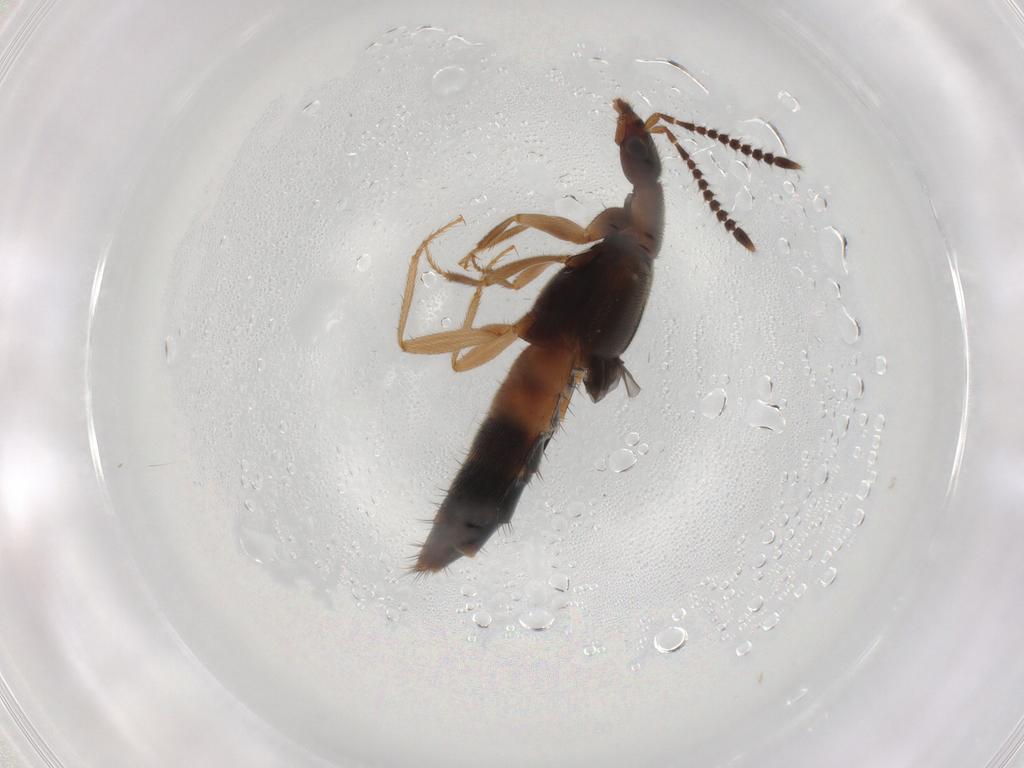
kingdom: Animalia
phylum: Arthropoda
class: Insecta
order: Coleoptera
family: Staphylinidae
